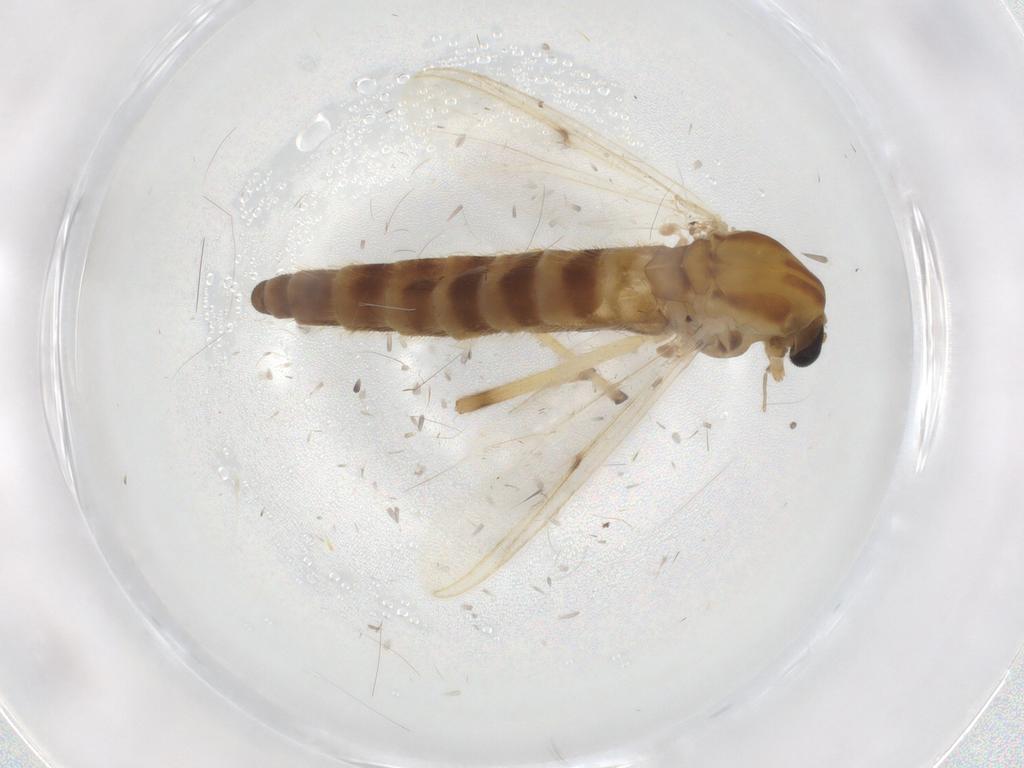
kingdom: Animalia
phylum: Arthropoda
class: Insecta
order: Diptera
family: Chironomidae
